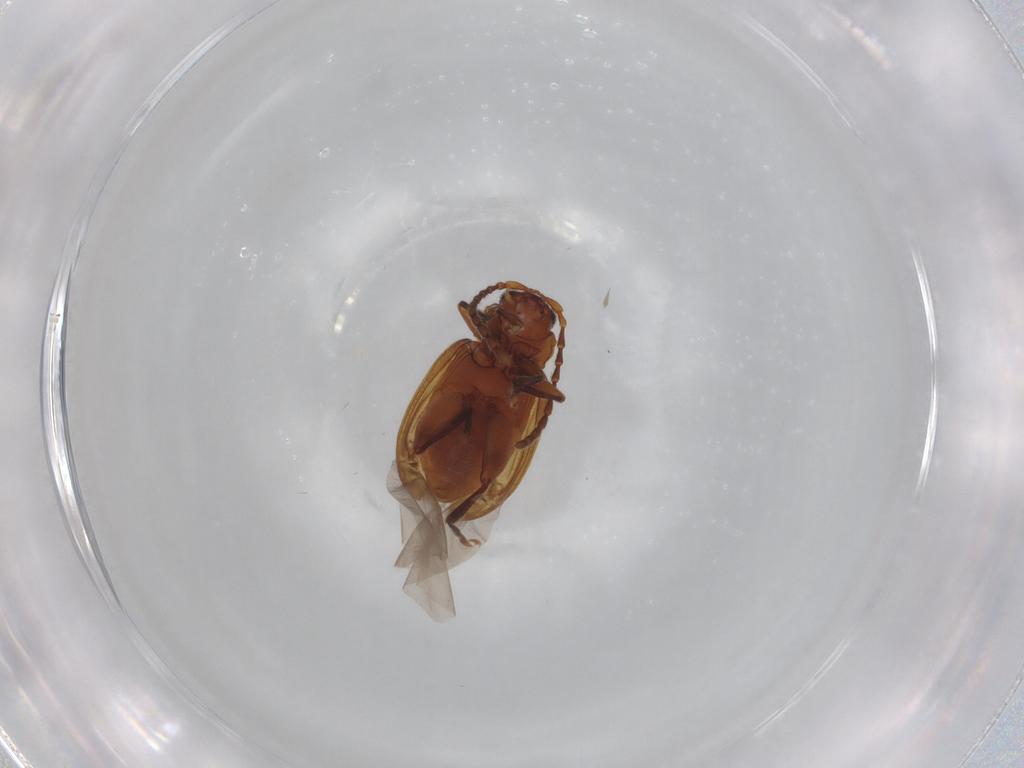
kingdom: Animalia
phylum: Arthropoda
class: Insecta
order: Coleoptera
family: Chrysomelidae
